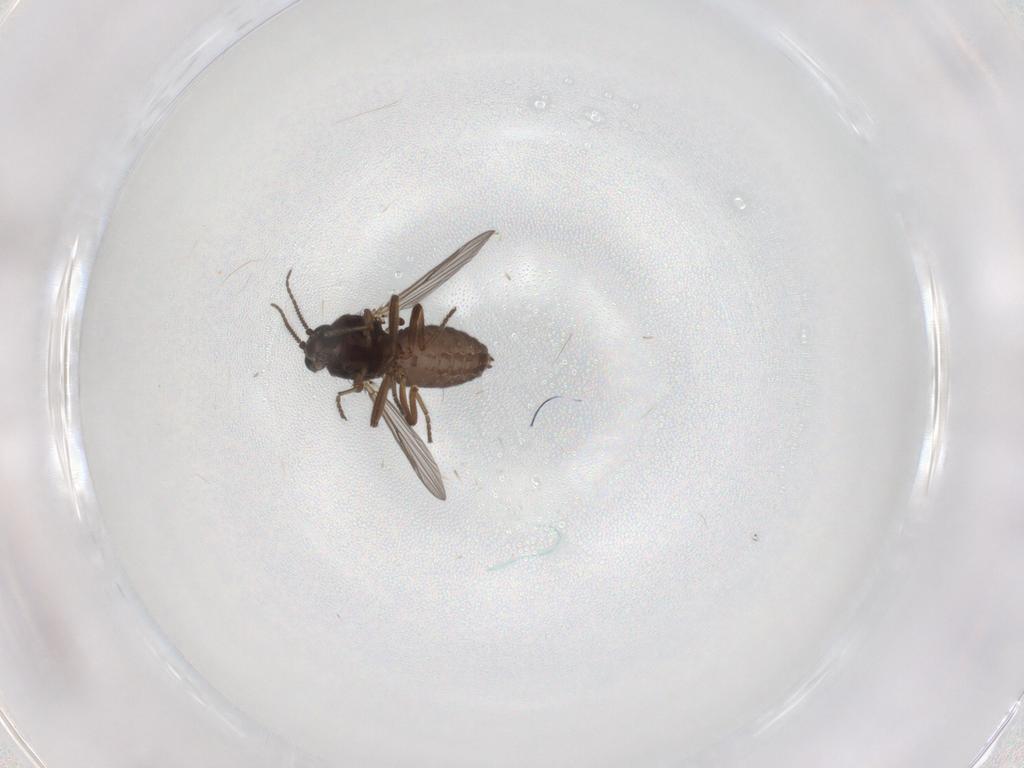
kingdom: Animalia
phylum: Arthropoda
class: Insecta
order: Diptera
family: Ceratopogonidae
